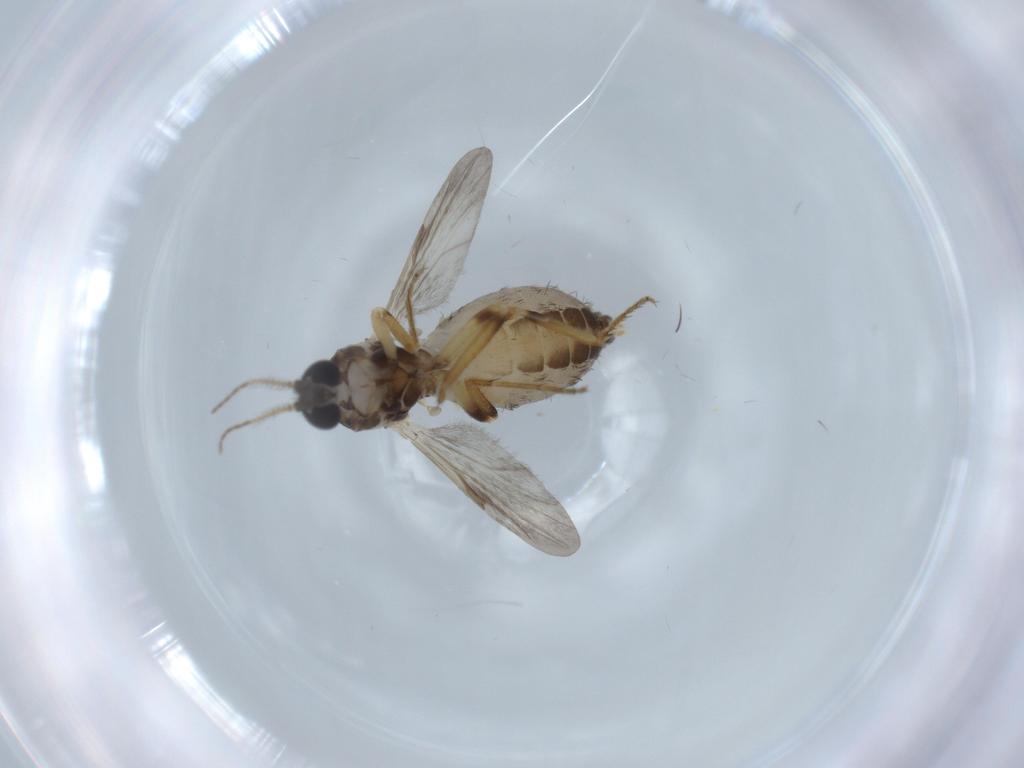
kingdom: Animalia
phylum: Arthropoda
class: Insecta
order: Diptera
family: Ceratopogonidae
